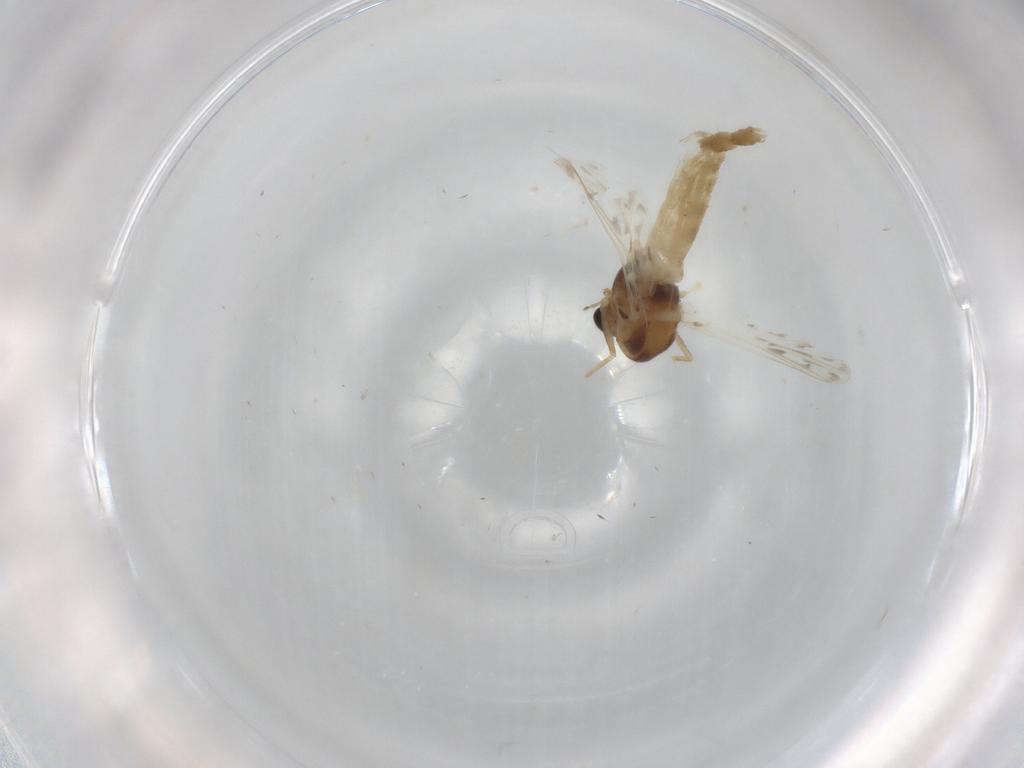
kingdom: Animalia
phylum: Arthropoda
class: Insecta
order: Diptera
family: Chironomidae
